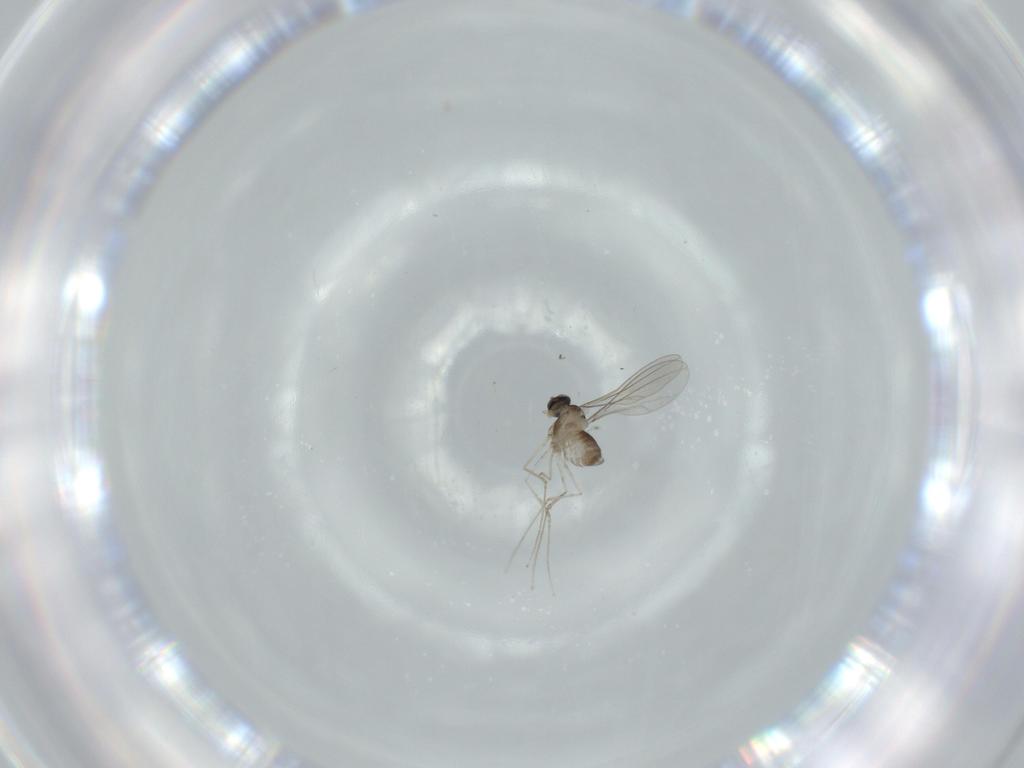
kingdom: Animalia
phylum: Arthropoda
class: Insecta
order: Diptera
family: Cecidomyiidae
